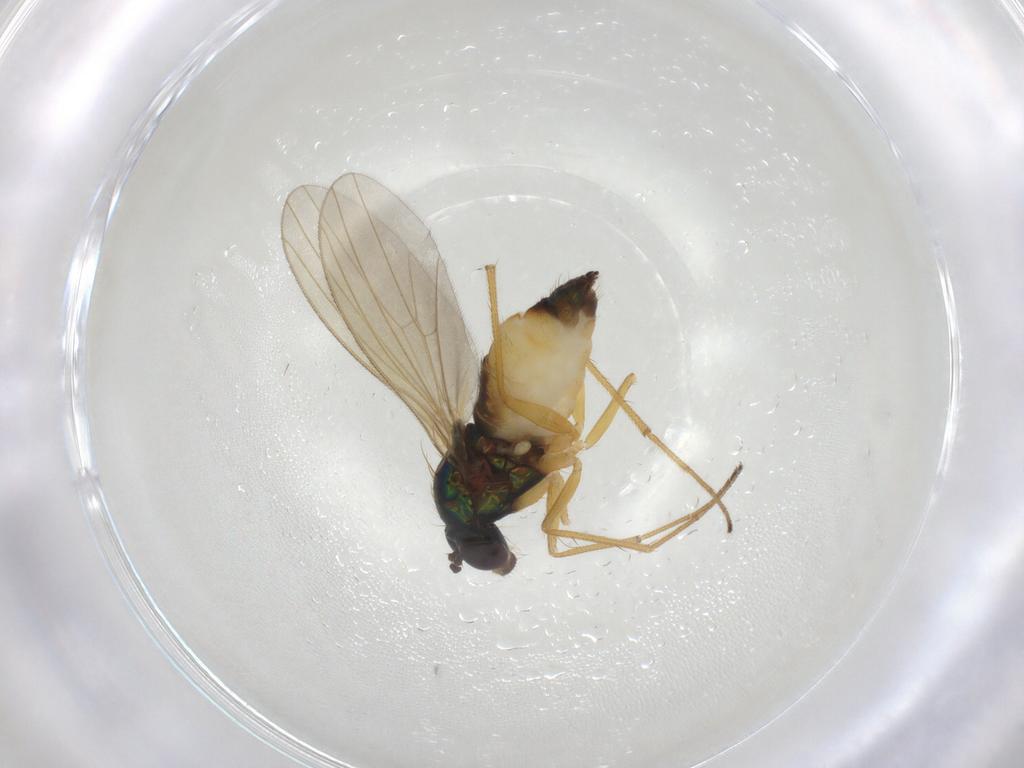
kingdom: Animalia
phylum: Arthropoda
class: Insecta
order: Diptera
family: Dolichopodidae
